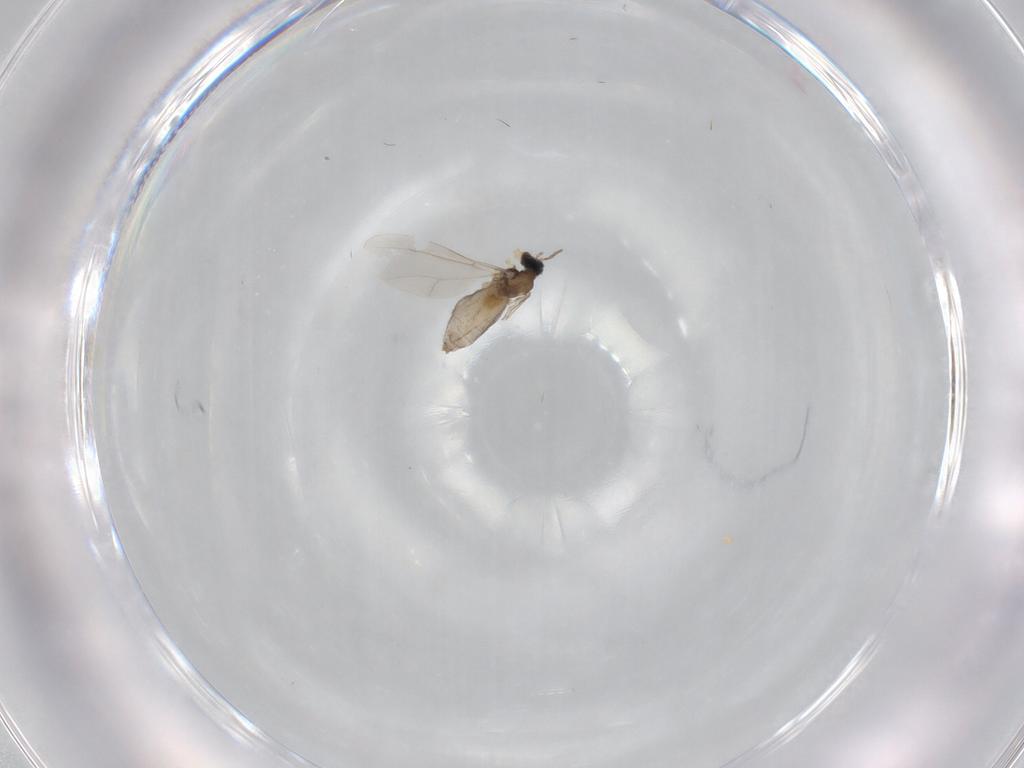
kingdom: Animalia
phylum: Arthropoda
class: Insecta
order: Diptera
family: Cecidomyiidae
